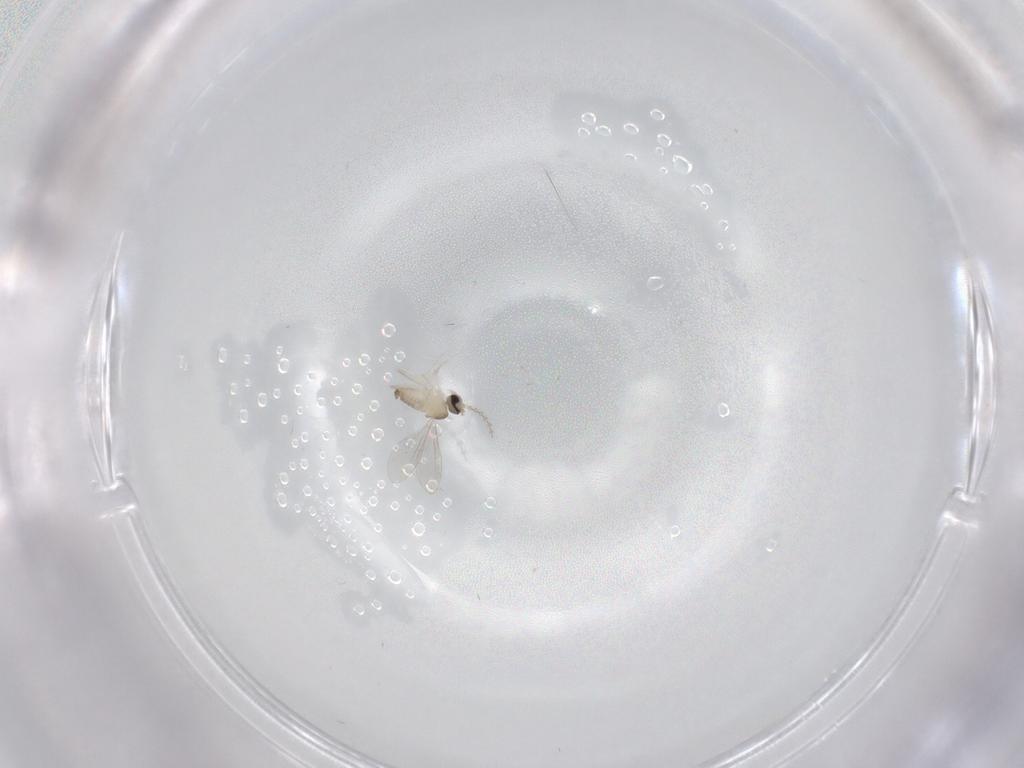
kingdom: Animalia
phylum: Arthropoda
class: Insecta
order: Diptera
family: Cecidomyiidae
